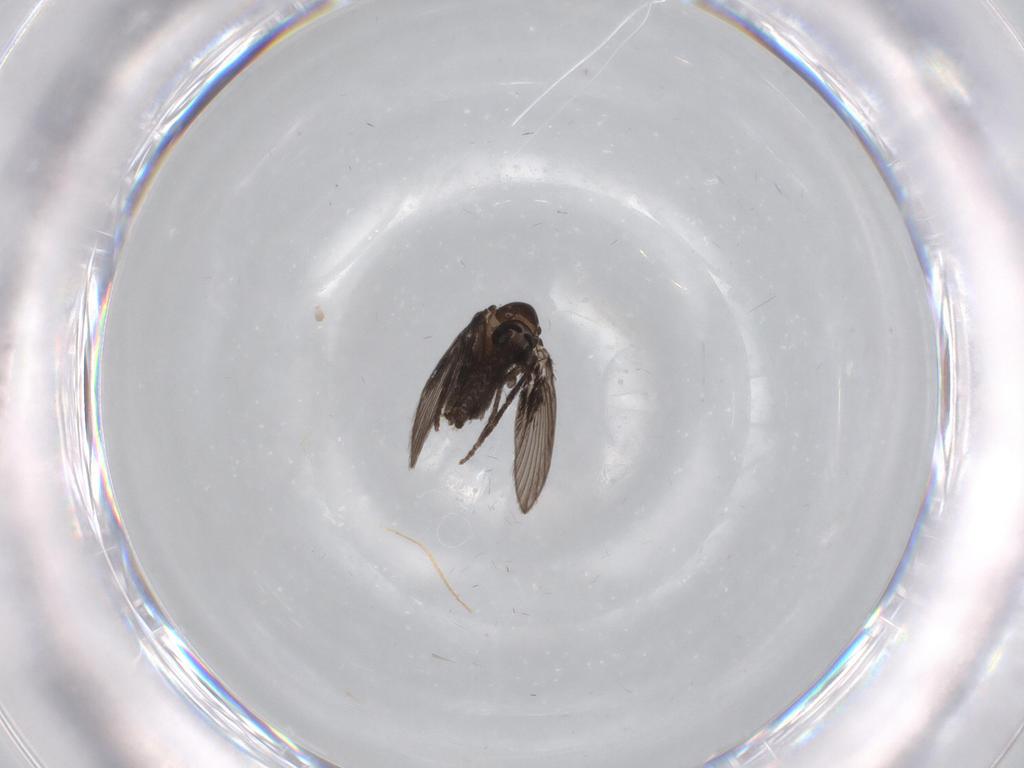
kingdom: Animalia
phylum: Arthropoda
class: Insecta
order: Diptera
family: Psychodidae
